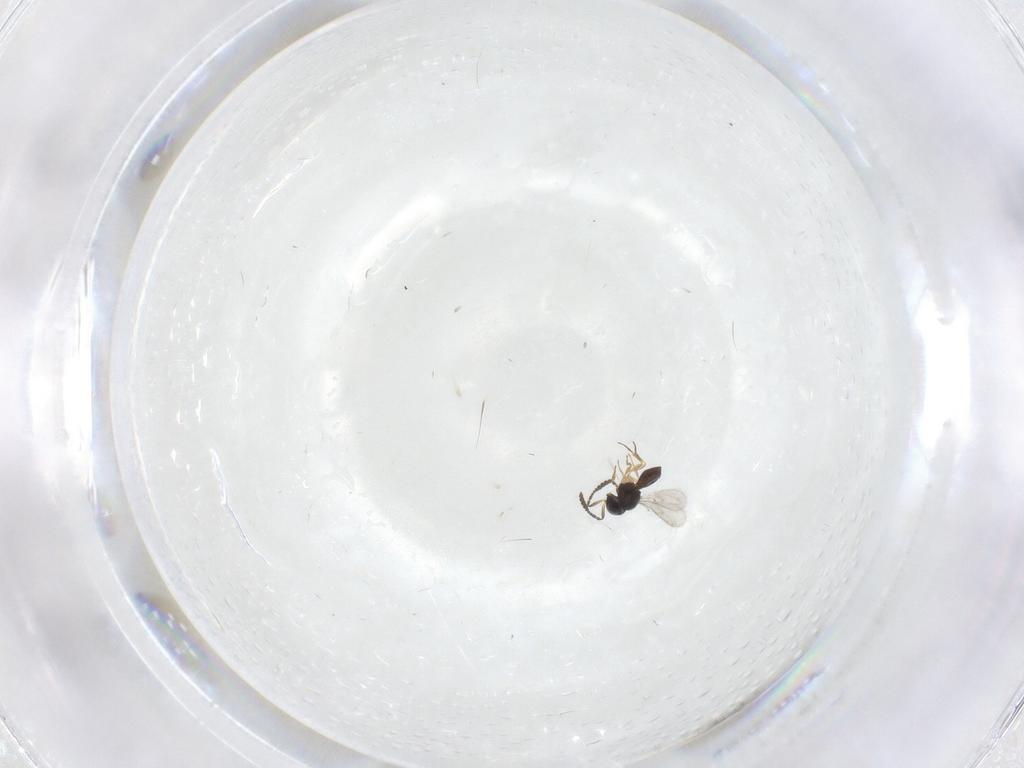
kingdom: Animalia
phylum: Arthropoda
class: Insecta
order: Hymenoptera
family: Scelionidae
